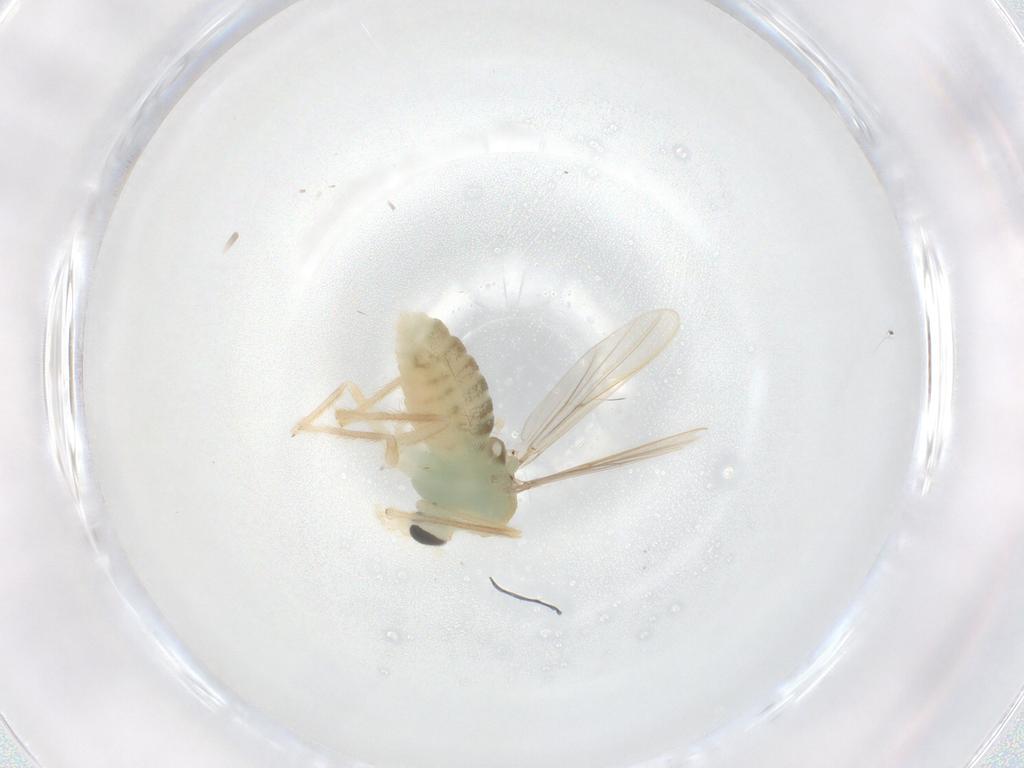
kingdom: Animalia
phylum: Arthropoda
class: Insecta
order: Diptera
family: Chironomidae
